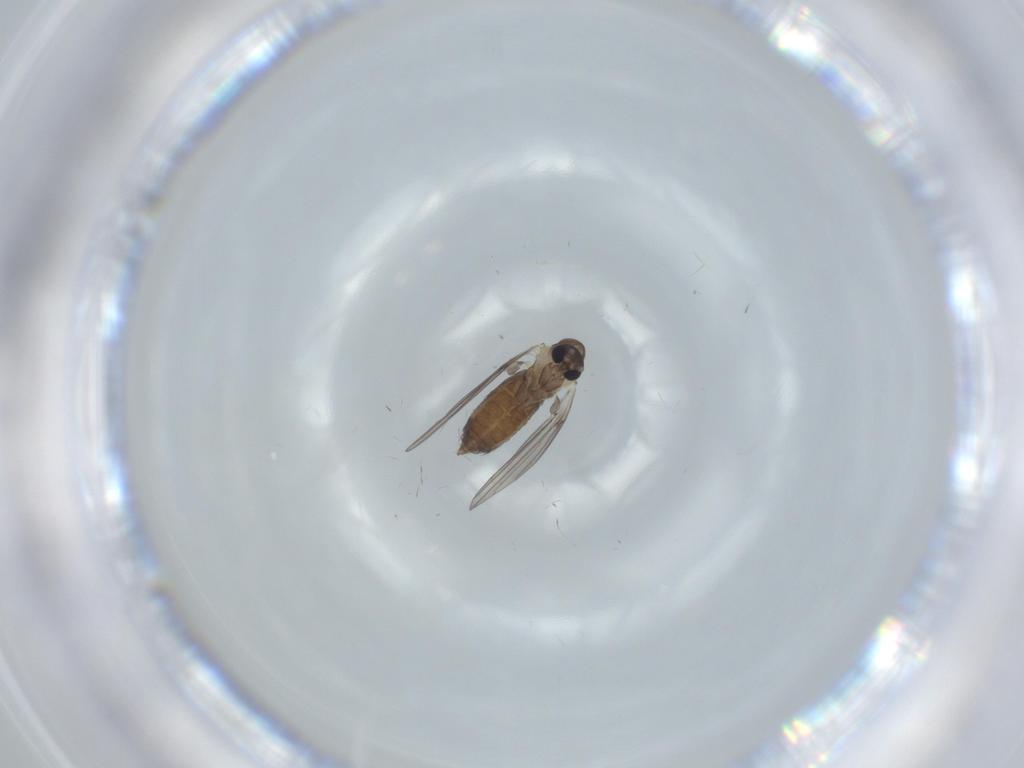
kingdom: Animalia
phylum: Arthropoda
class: Insecta
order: Diptera
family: Psychodidae
